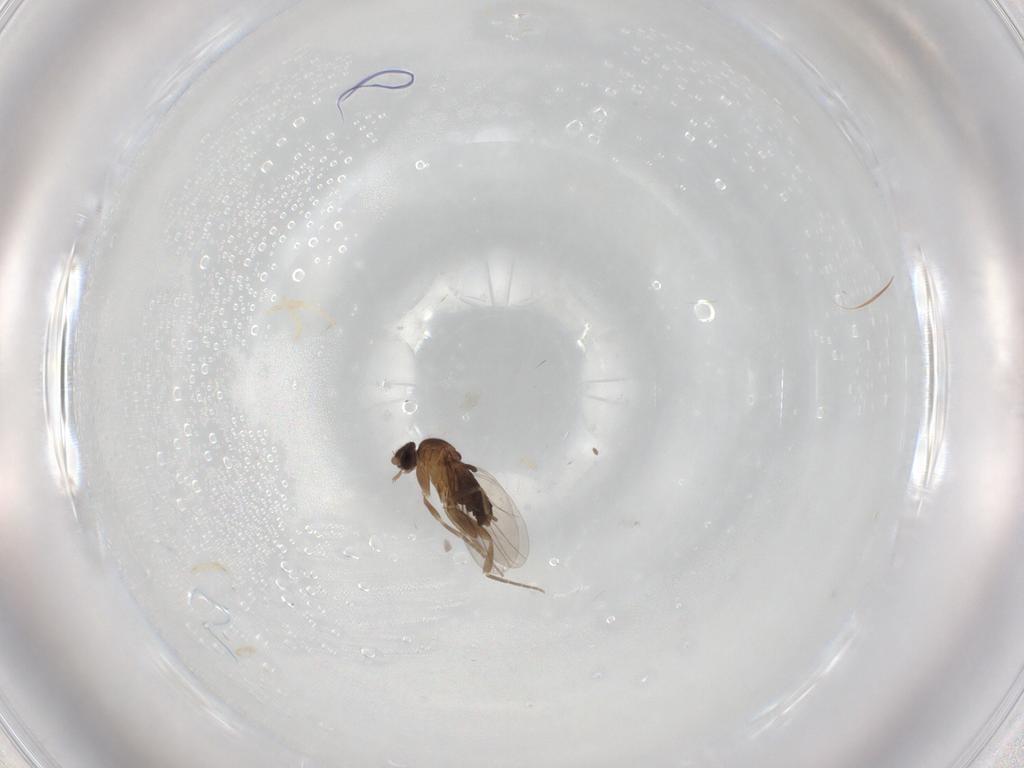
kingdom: Animalia
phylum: Arthropoda
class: Insecta
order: Diptera
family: Phoridae
